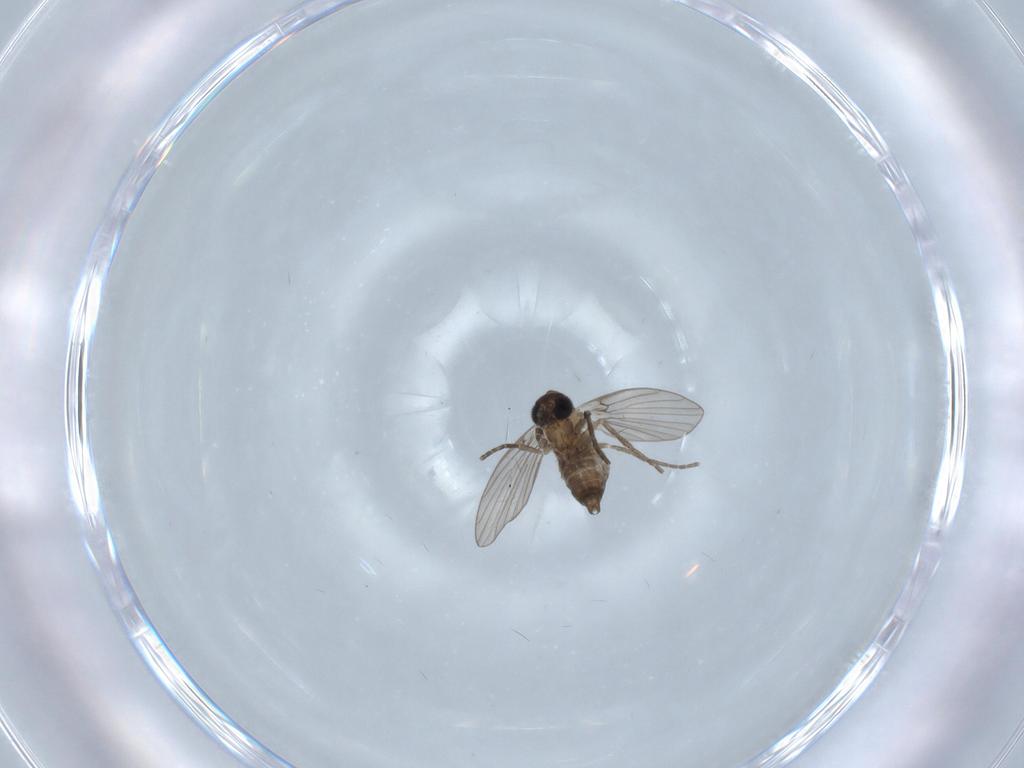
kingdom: Animalia
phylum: Arthropoda
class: Insecta
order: Diptera
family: Psychodidae
